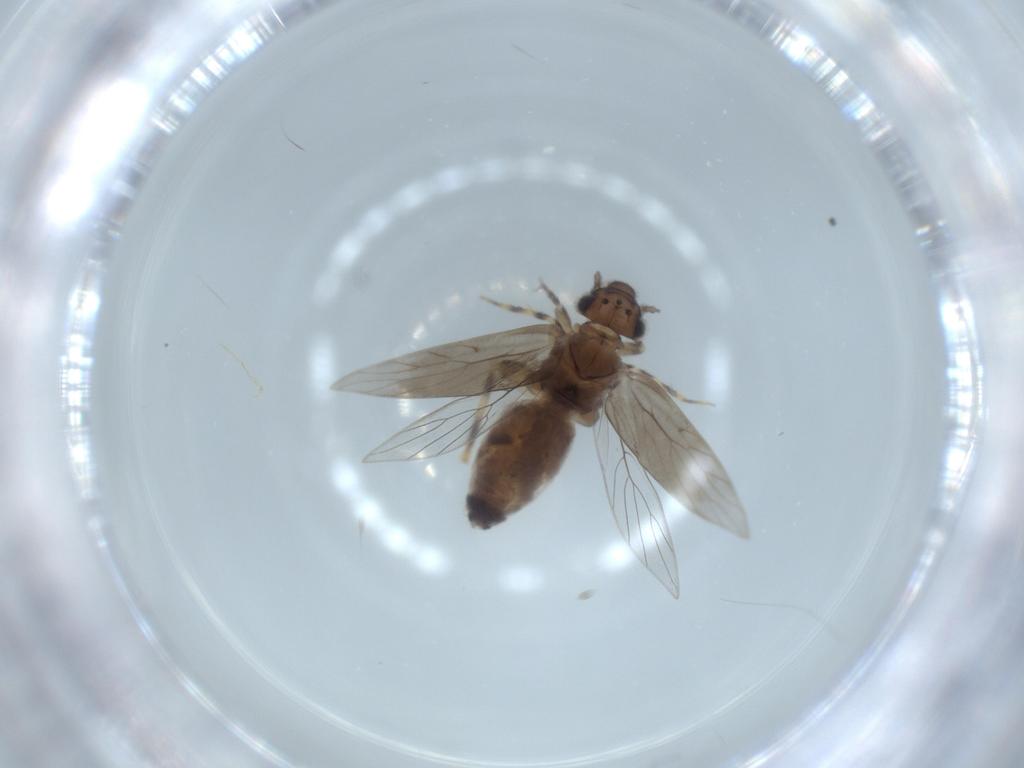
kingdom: Animalia
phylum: Arthropoda
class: Insecta
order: Psocodea
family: Lepidopsocidae
